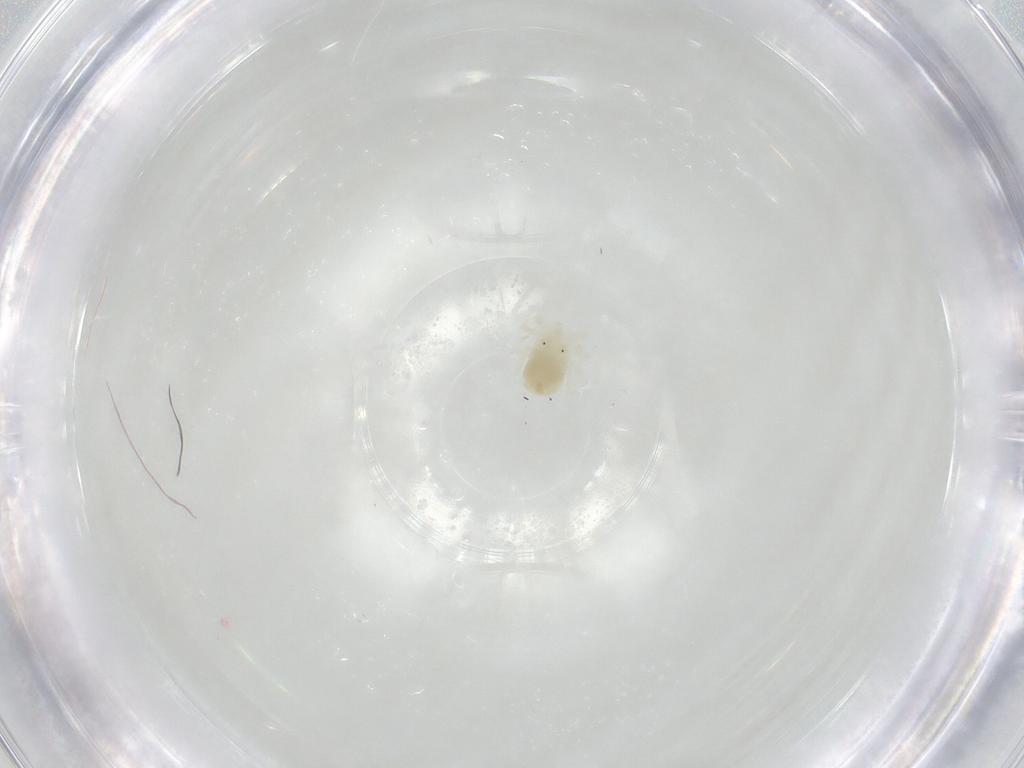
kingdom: Animalia
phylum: Arthropoda
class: Arachnida
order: Trombidiformes
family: Anystidae
